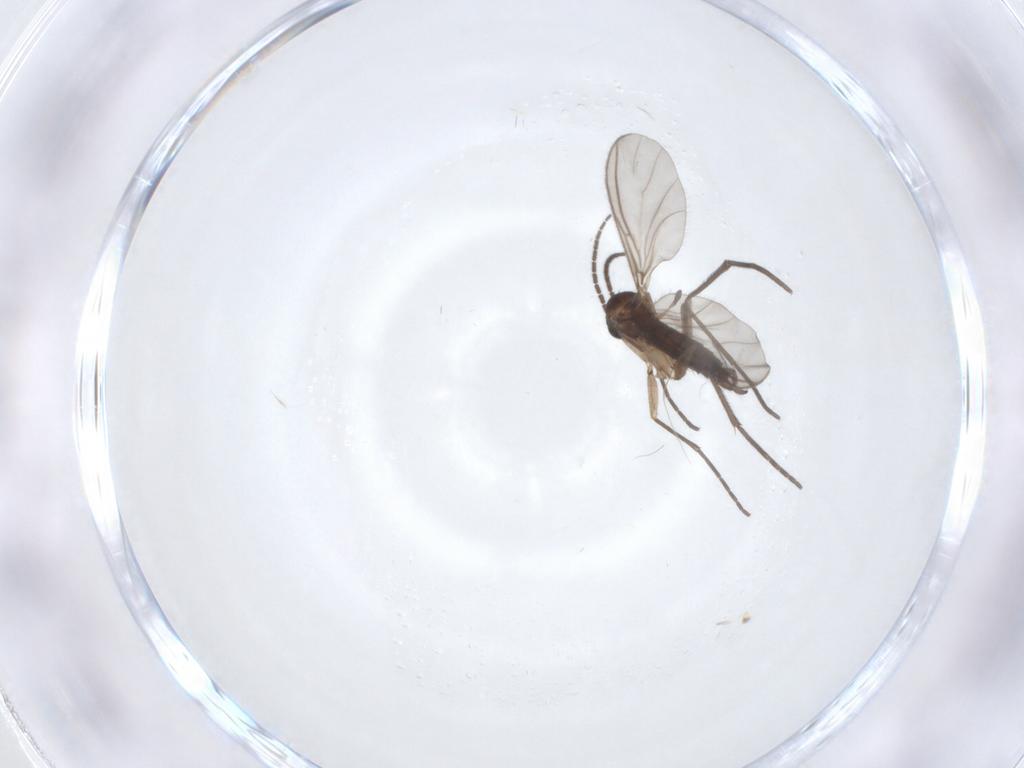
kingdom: Animalia
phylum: Arthropoda
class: Insecta
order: Diptera
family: Sciaridae
